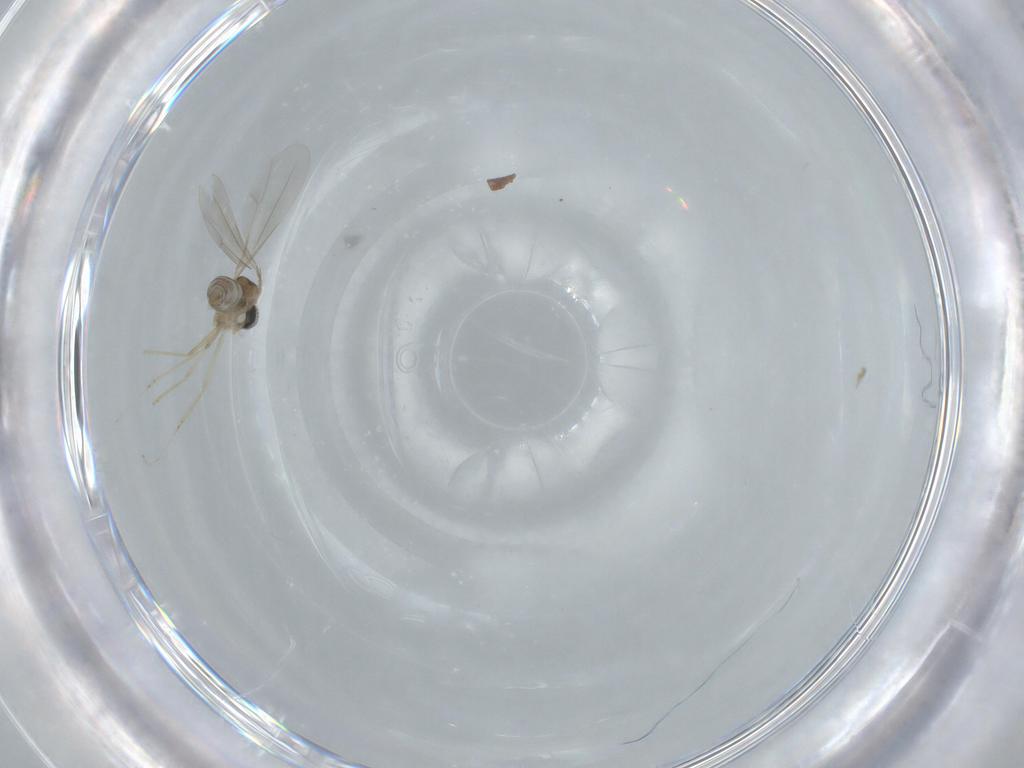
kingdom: Animalia
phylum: Arthropoda
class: Insecta
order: Diptera
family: Cecidomyiidae
